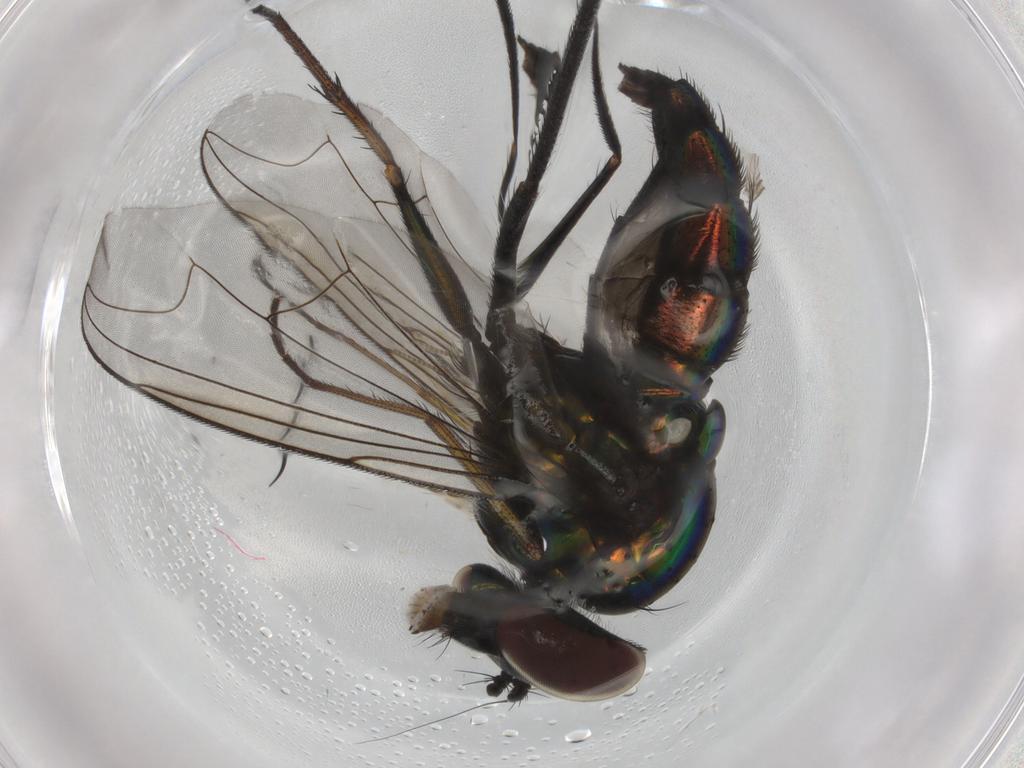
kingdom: Animalia
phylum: Arthropoda
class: Insecta
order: Diptera
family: Dolichopodidae
